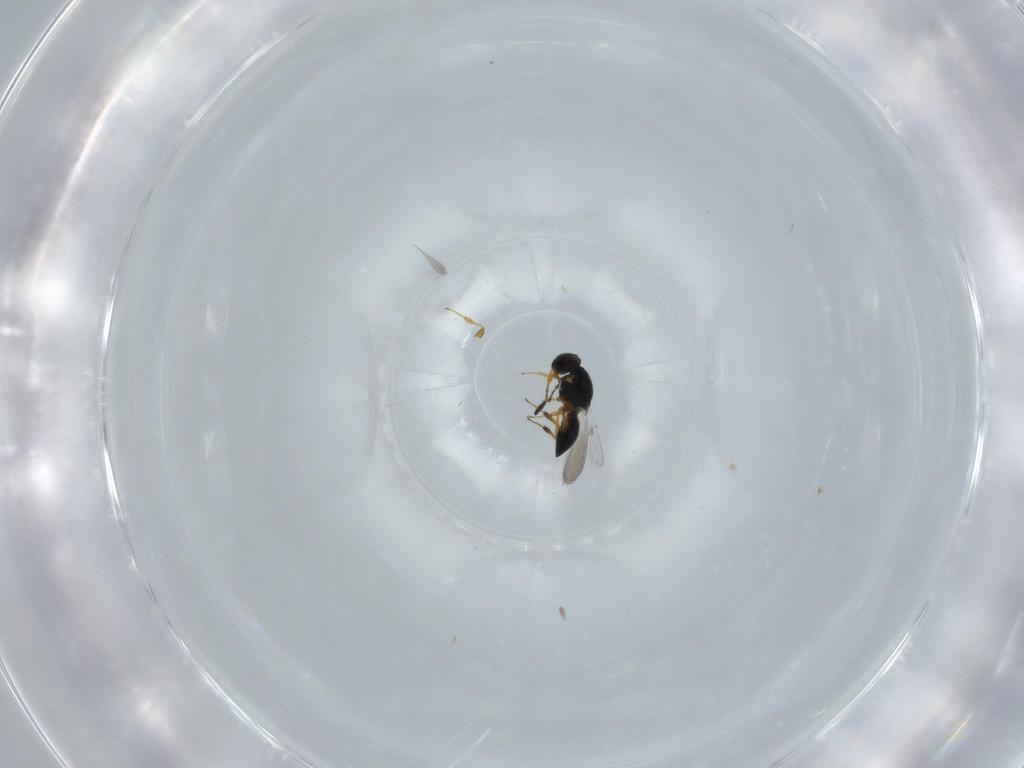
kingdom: Animalia
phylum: Arthropoda
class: Insecta
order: Hymenoptera
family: Platygastridae
